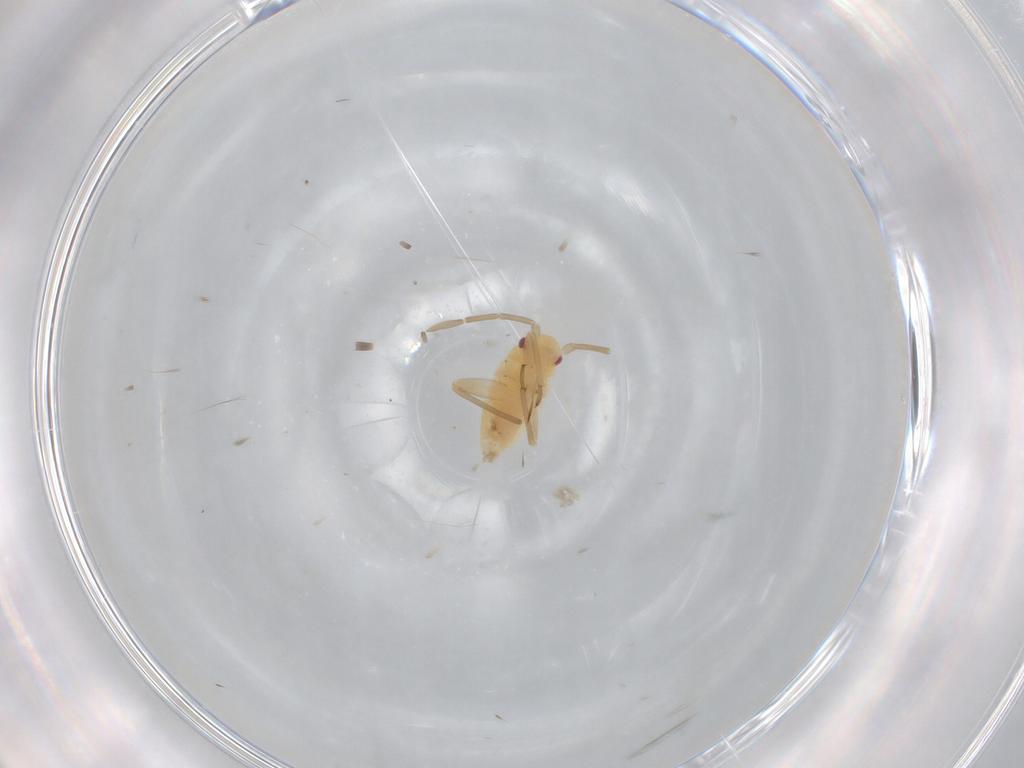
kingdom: Animalia
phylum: Arthropoda
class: Insecta
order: Hemiptera
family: Miridae
